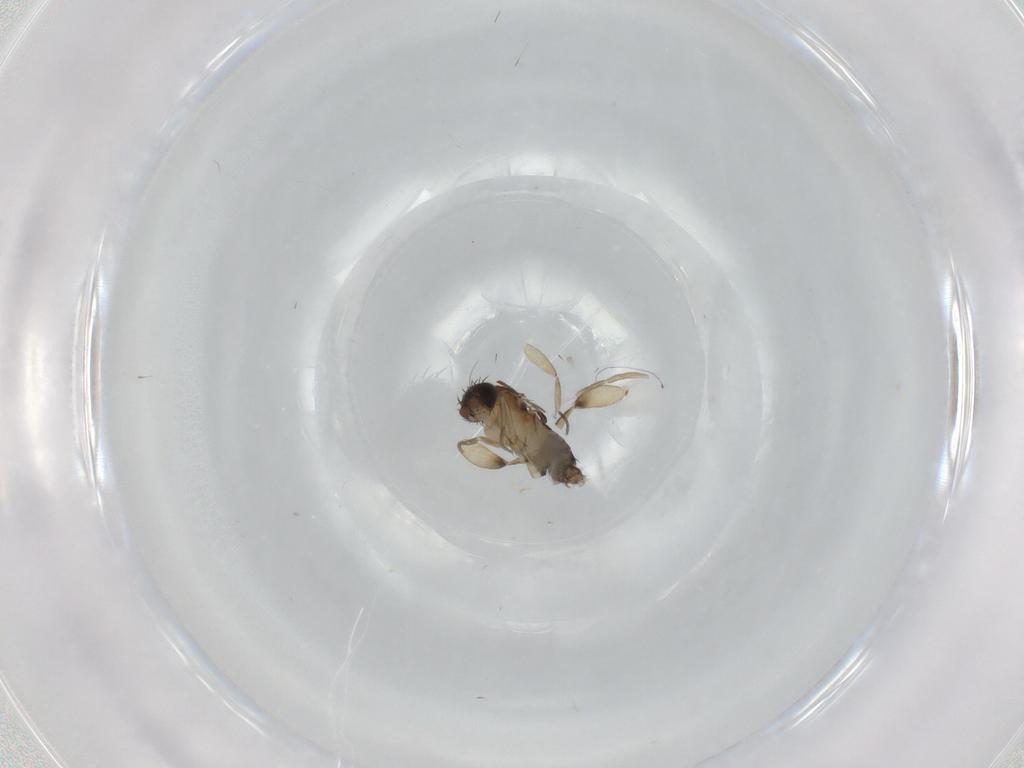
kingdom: Animalia
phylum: Arthropoda
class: Insecta
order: Diptera
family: Phoridae
